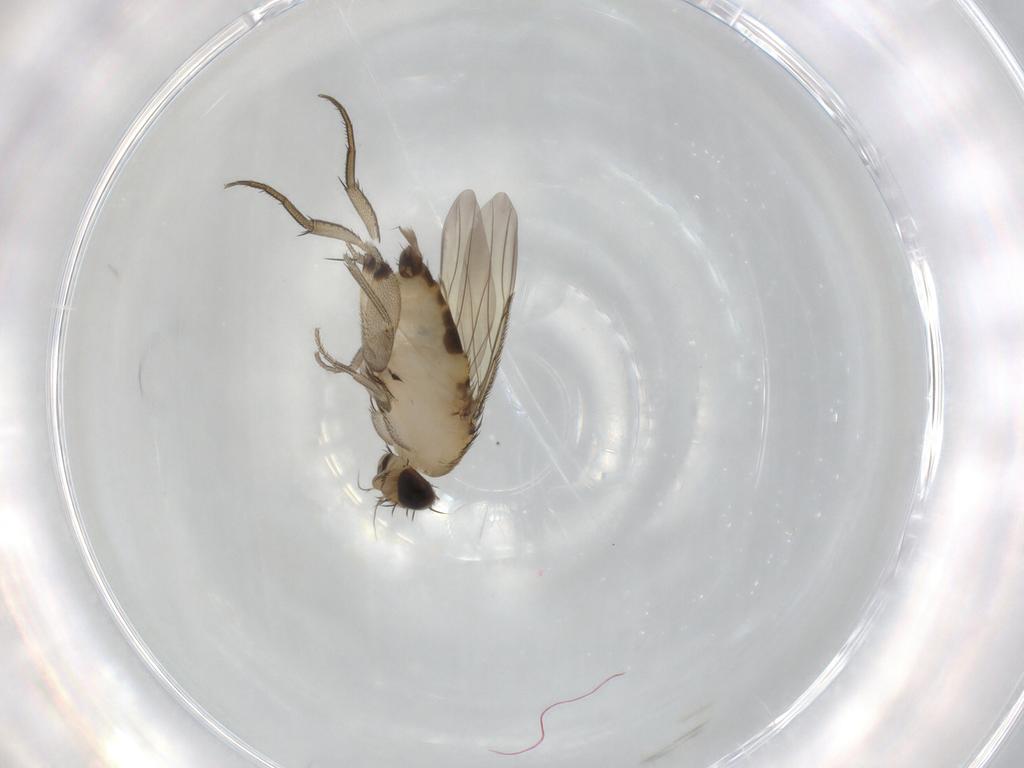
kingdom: Animalia
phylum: Arthropoda
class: Insecta
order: Diptera
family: Phoridae
